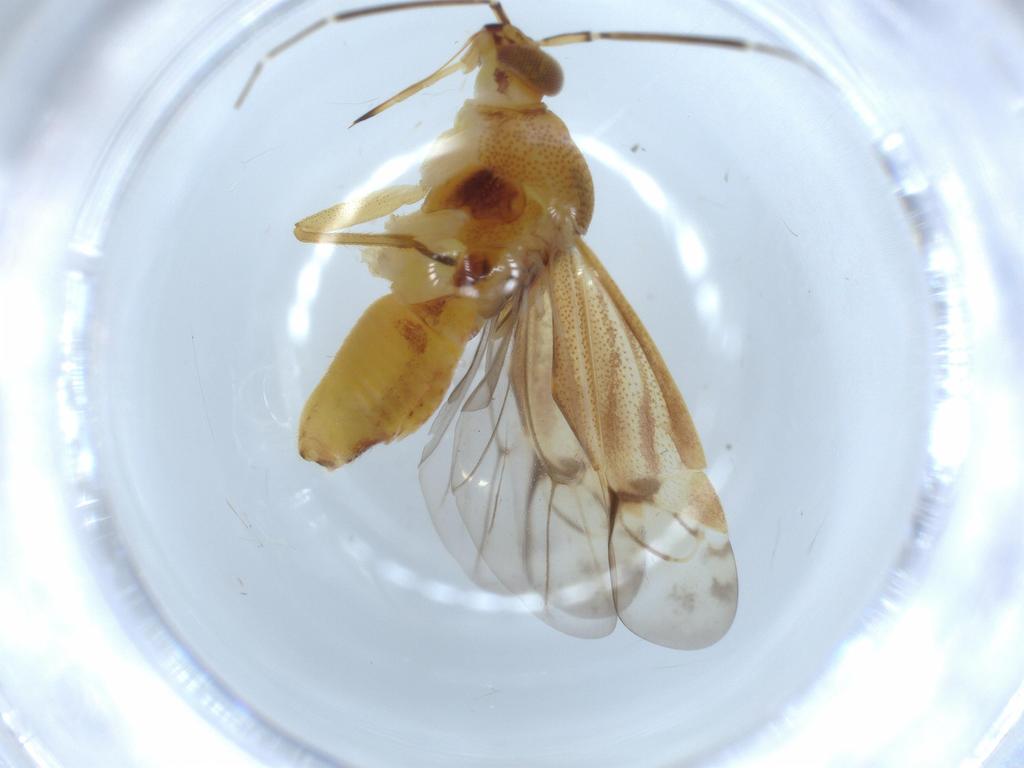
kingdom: Animalia
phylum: Arthropoda
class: Insecta
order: Hemiptera
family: Miridae
